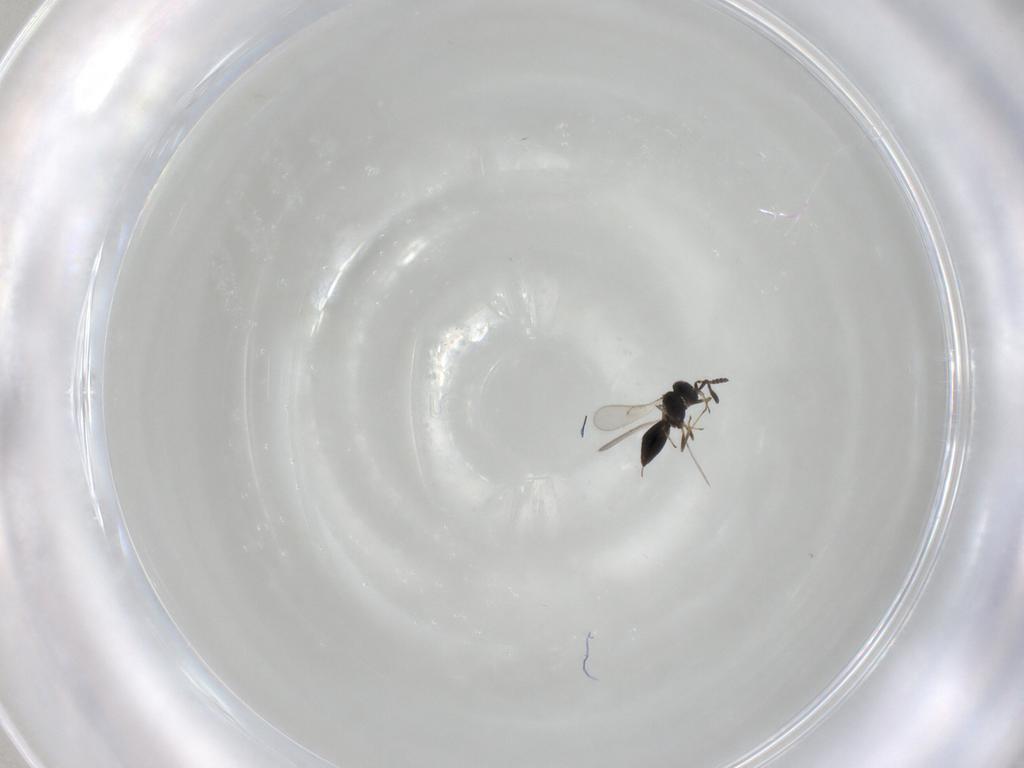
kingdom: Animalia
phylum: Arthropoda
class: Insecta
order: Hymenoptera
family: Scelionidae
